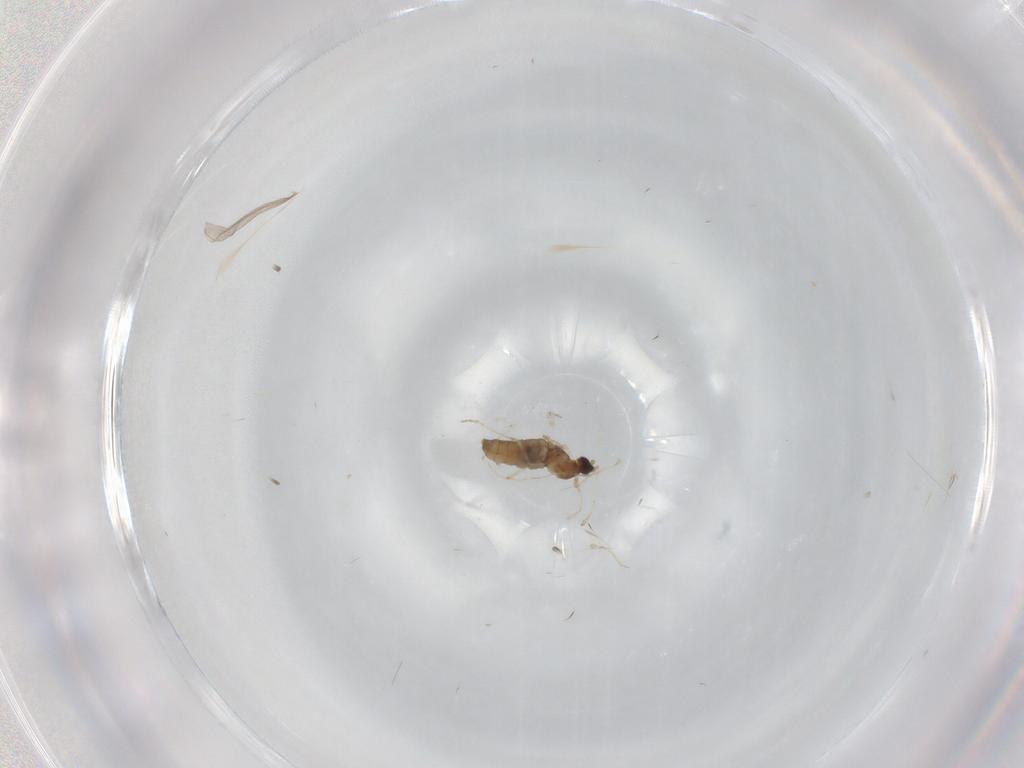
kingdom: Animalia
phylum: Arthropoda
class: Insecta
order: Diptera
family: Cecidomyiidae
